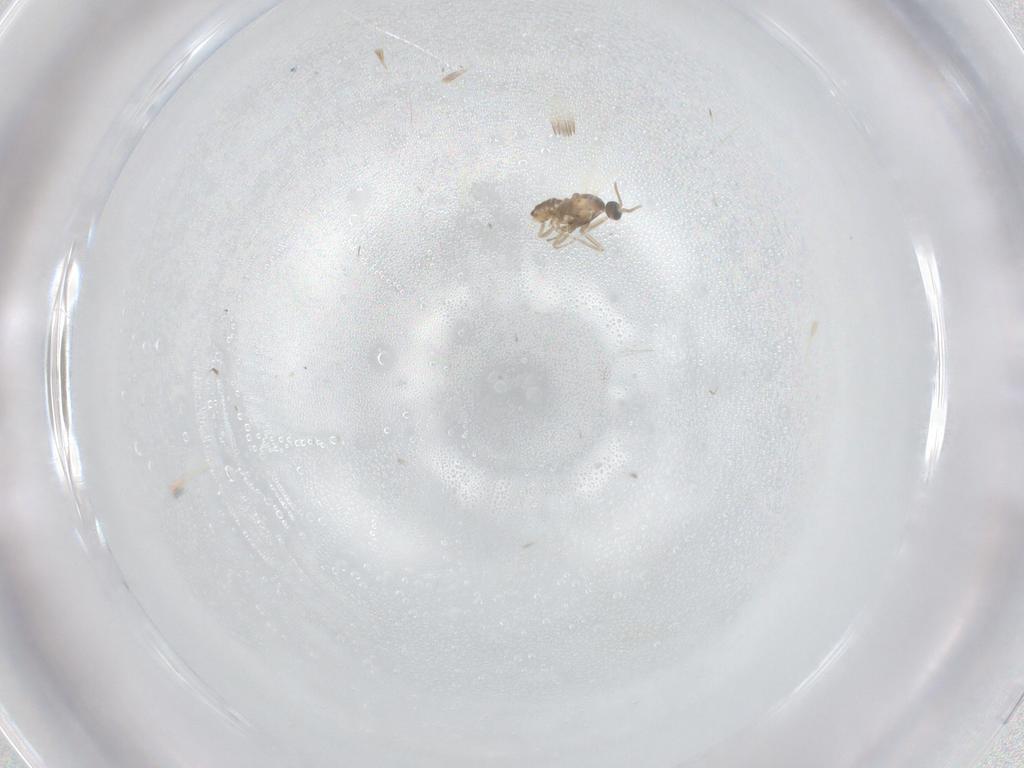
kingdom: Animalia
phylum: Arthropoda
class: Insecta
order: Diptera
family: Cecidomyiidae
